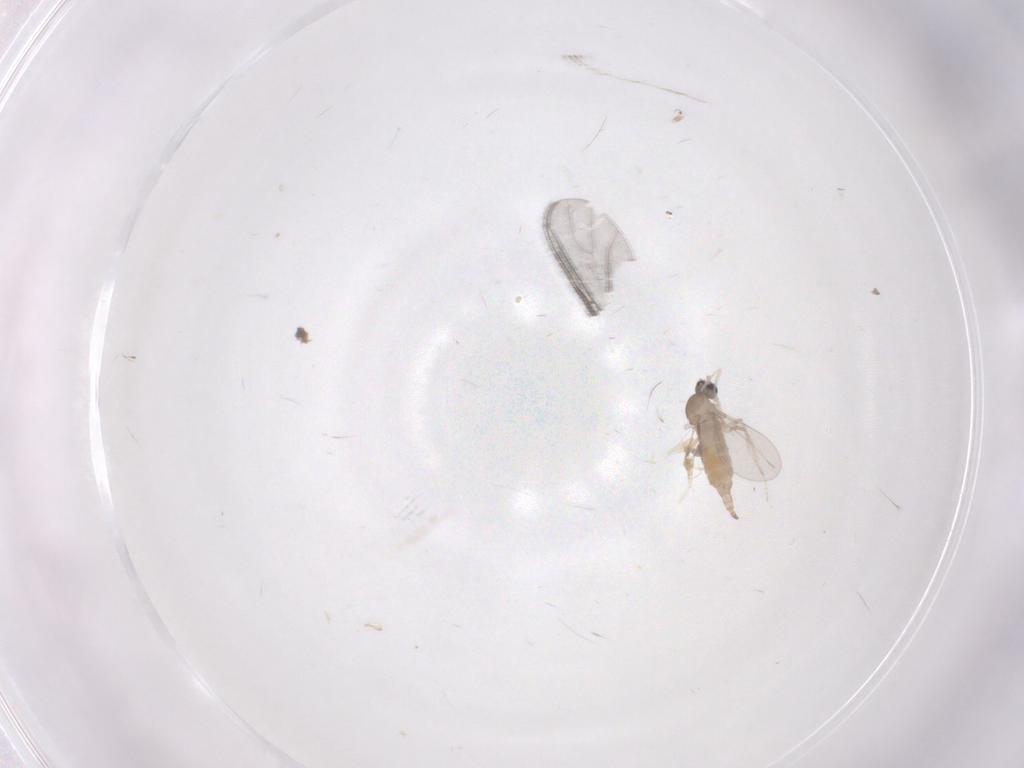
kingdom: Animalia
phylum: Arthropoda
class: Insecta
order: Diptera
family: Cecidomyiidae
